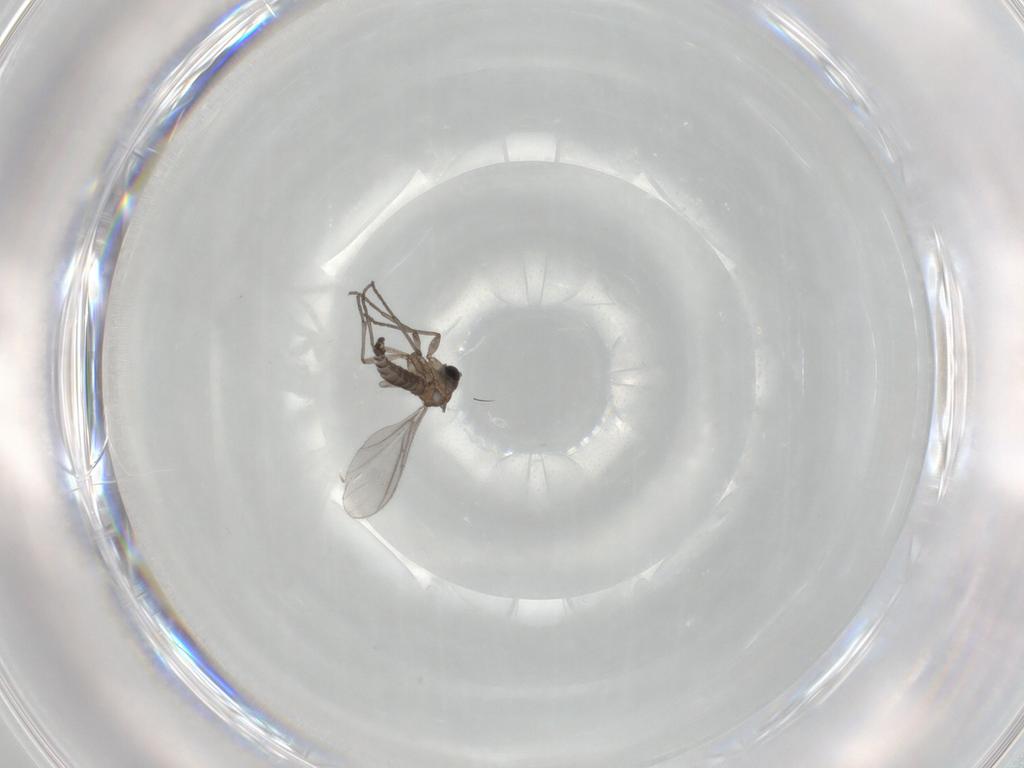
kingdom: Animalia
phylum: Arthropoda
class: Insecta
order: Diptera
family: Sciaridae
